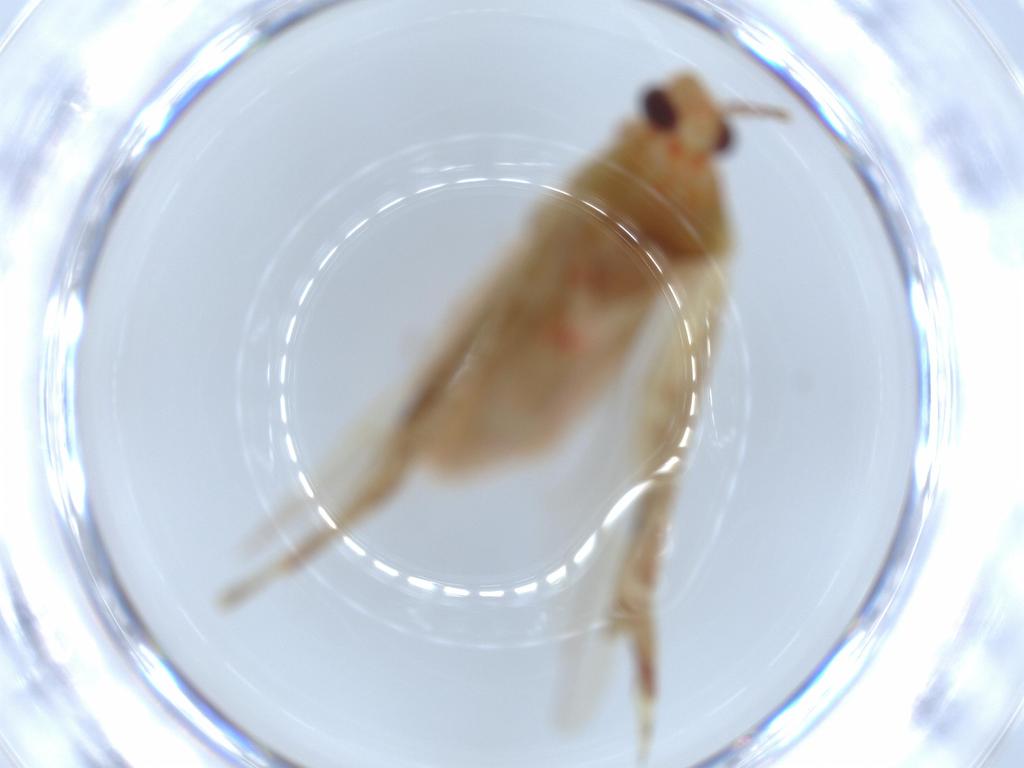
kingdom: Animalia
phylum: Arthropoda
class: Insecta
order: Hemiptera
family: Miridae
